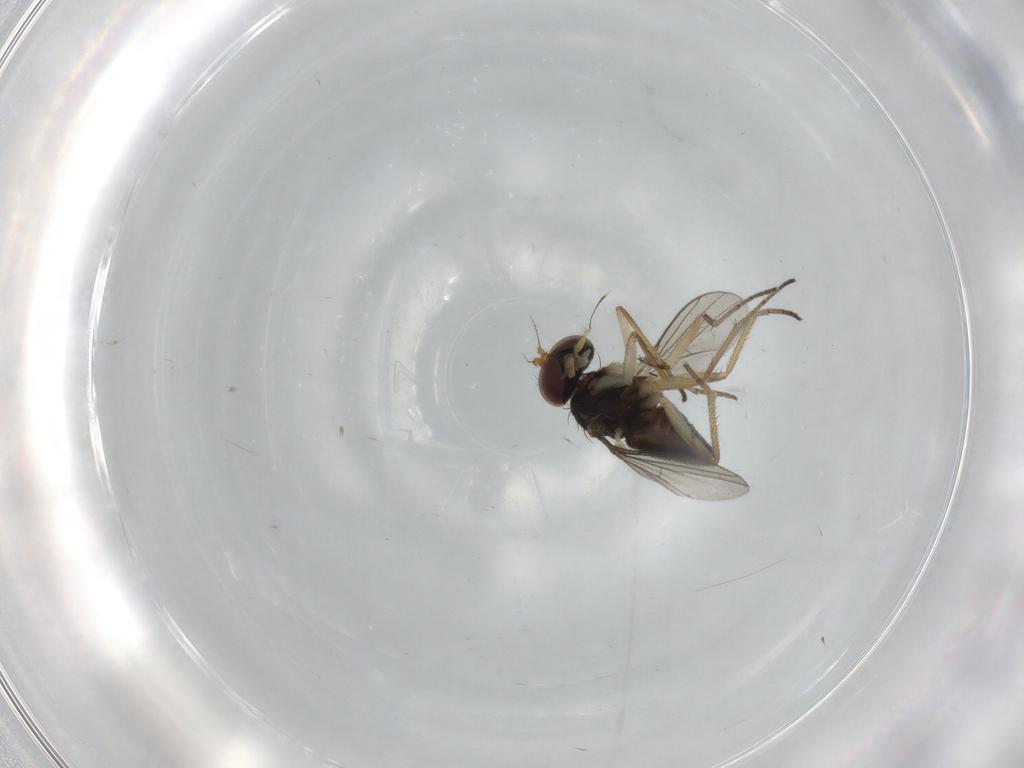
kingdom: Animalia
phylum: Arthropoda
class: Insecta
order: Diptera
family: Dolichopodidae
